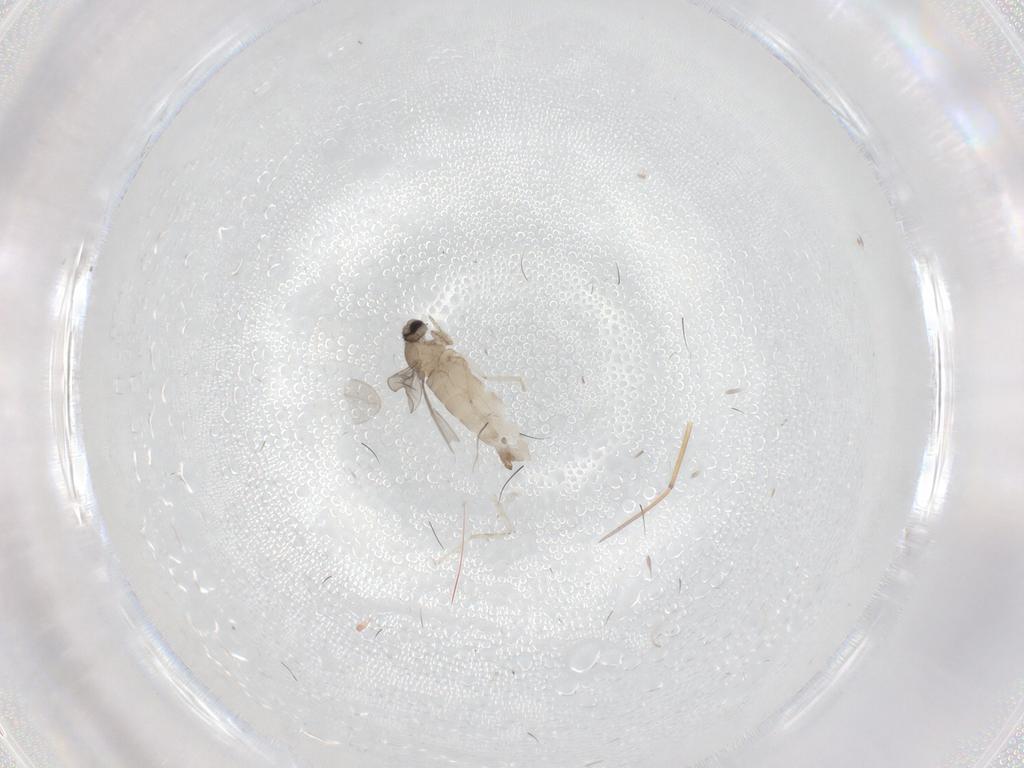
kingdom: Animalia
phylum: Arthropoda
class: Insecta
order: Diptera
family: Cecidomyiidae
